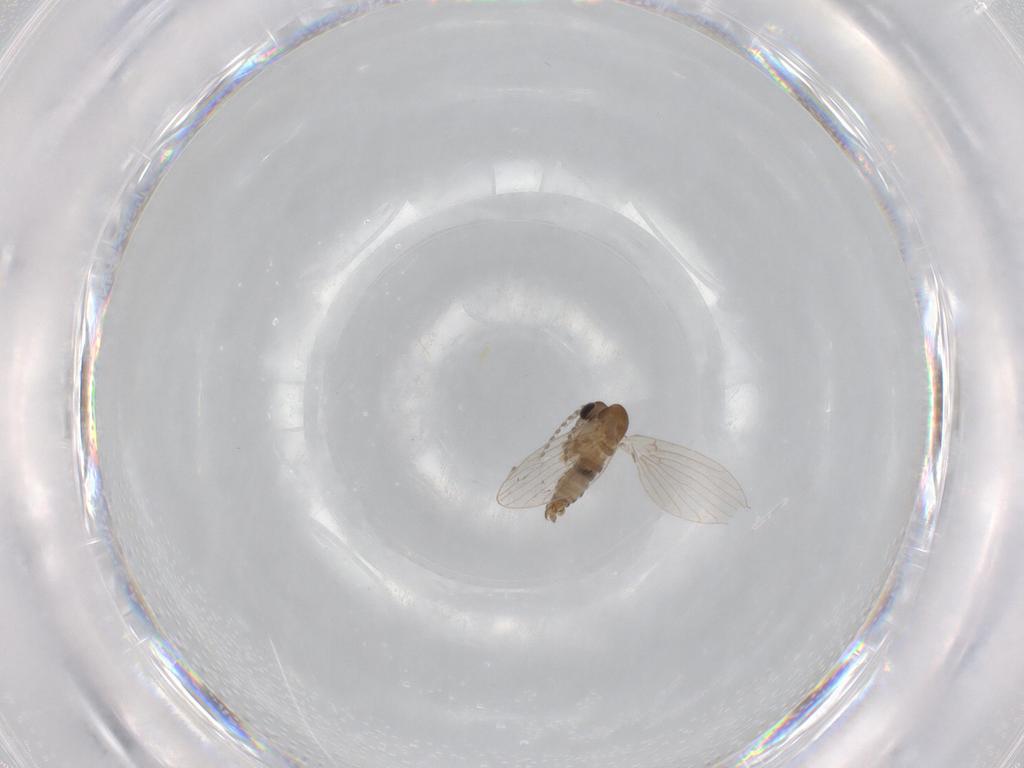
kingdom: Animalia
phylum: Arthropoda
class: Insecta
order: Diptera
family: Psychodidae
